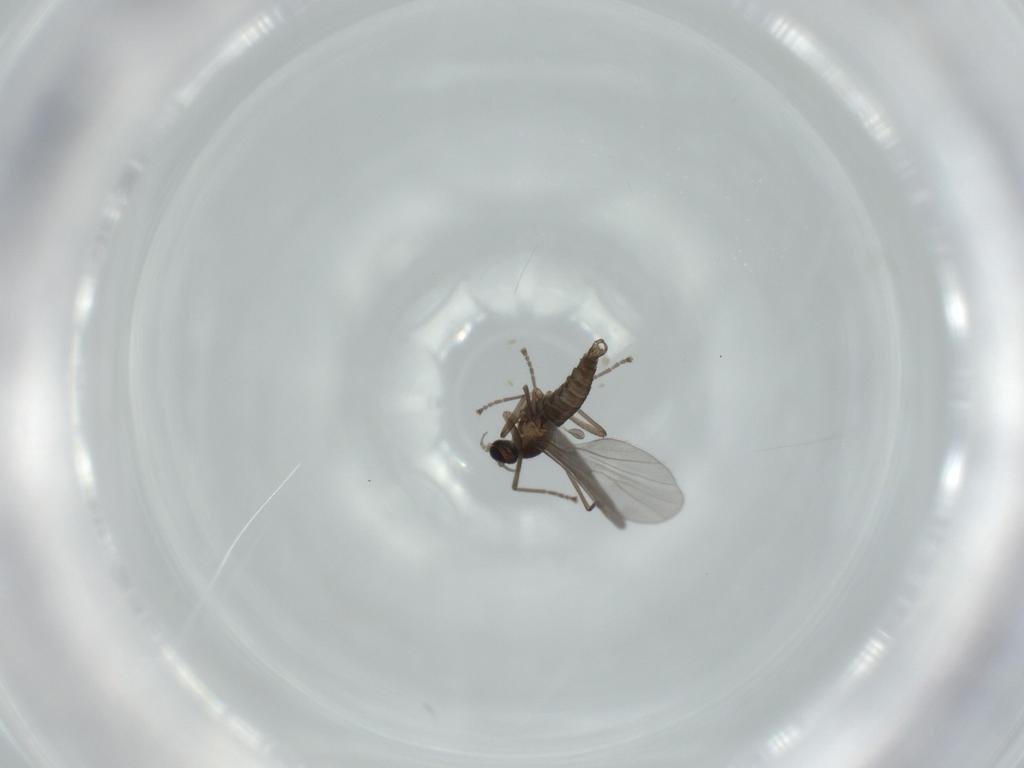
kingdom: Animalia
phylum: Arthropoda
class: Insecta
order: Diptera
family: Cecidomyiidae
